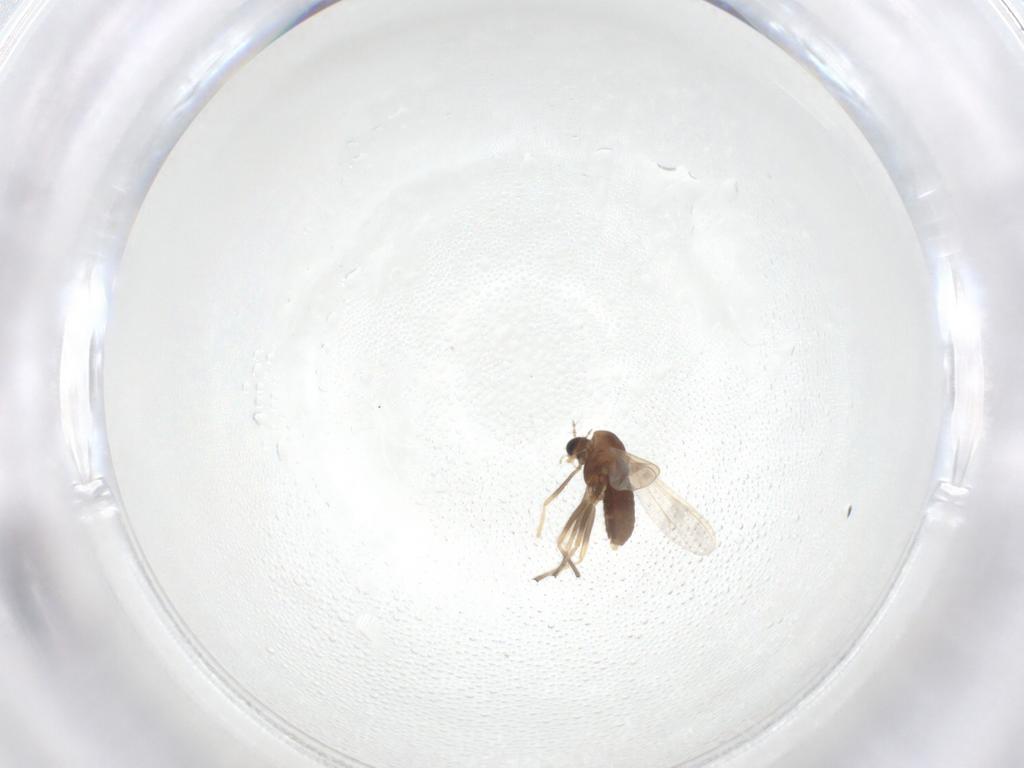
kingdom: Animalia
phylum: Arthropoda
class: Insecta
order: Diptera
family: Chironomidae
